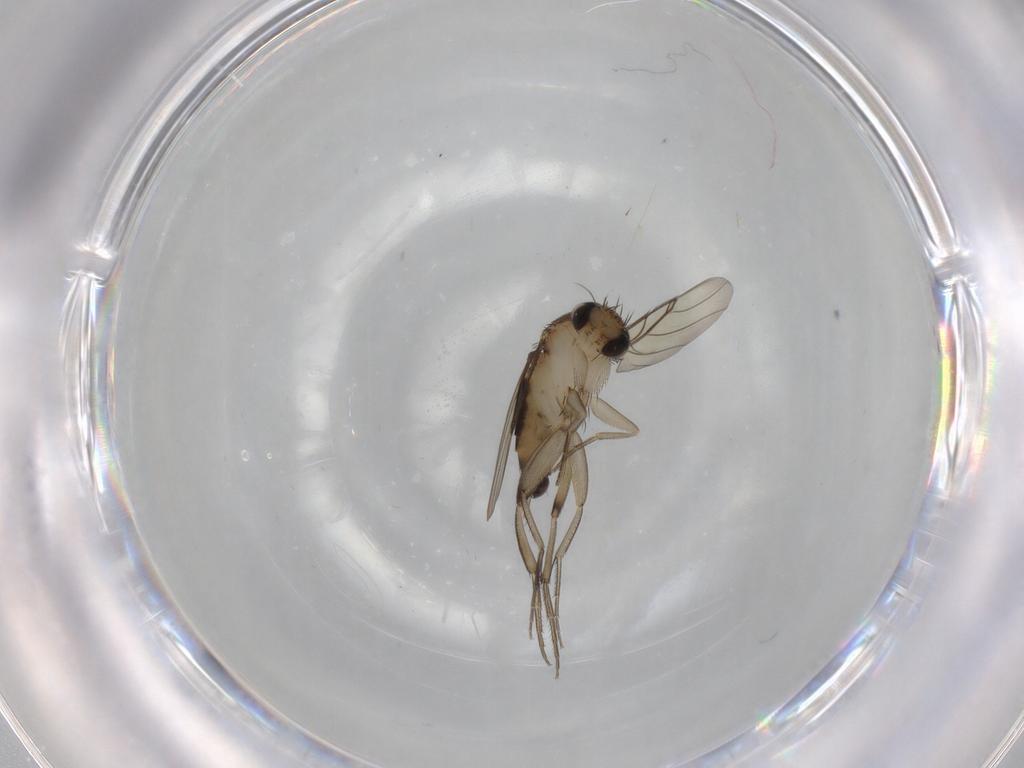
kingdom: Animalia
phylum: Arthropoda
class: Insecta
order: Diptera
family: Phoridae
